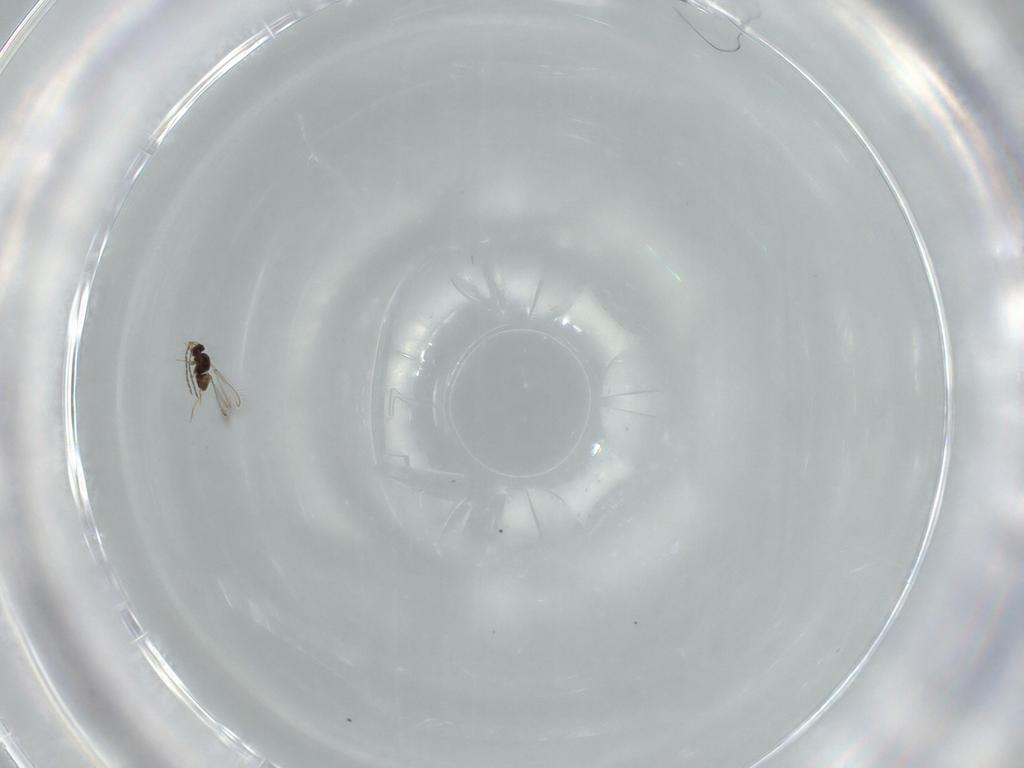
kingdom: Animalia
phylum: Arthropoda
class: Insecta
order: Hymenoptera
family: Mymaridae
